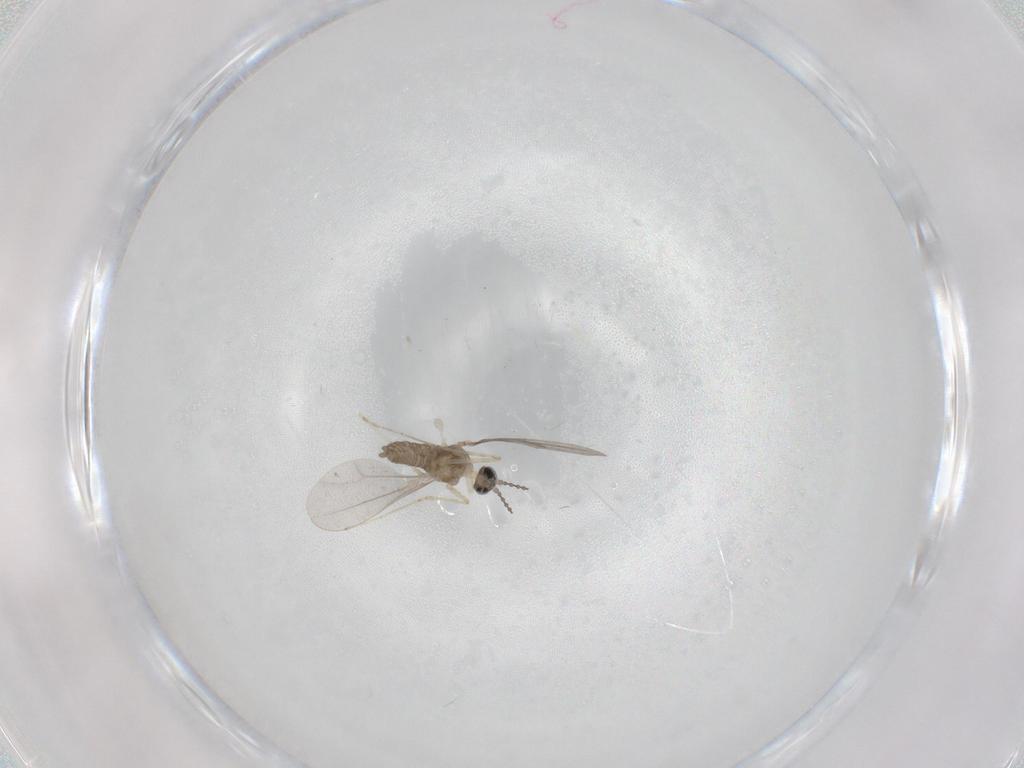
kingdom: Animalia
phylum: Arthropoda
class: Insecta
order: Diptera
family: Cecidomyiidae
